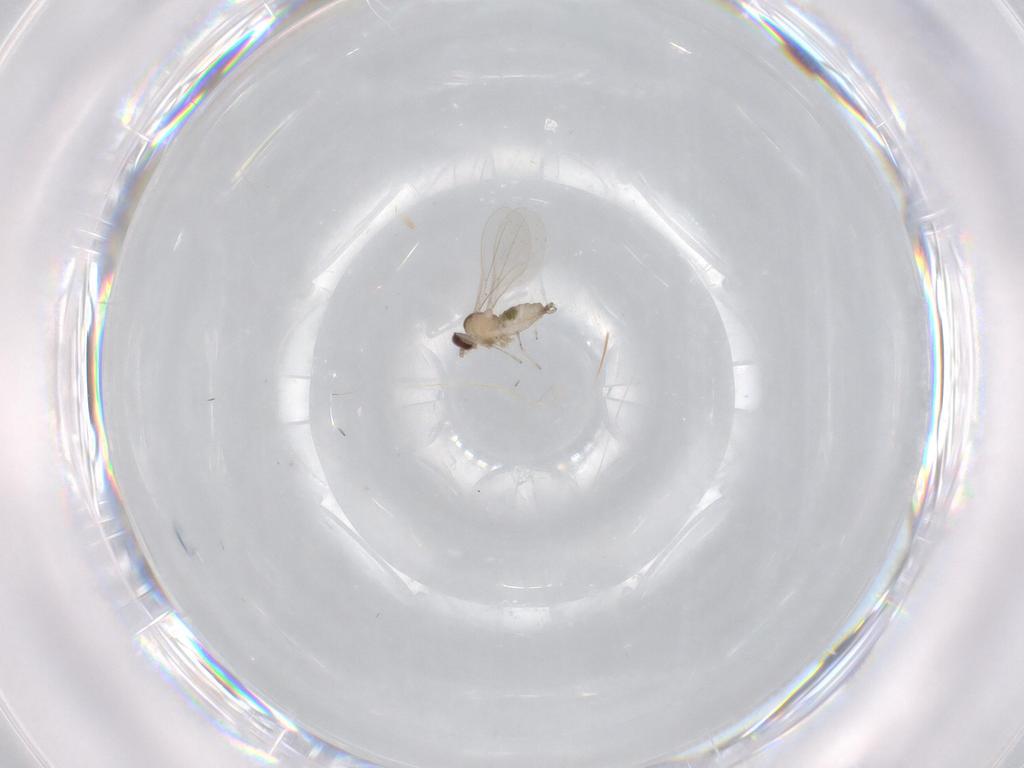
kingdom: Animalia
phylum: Arthropoda
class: Insecta
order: Diptera
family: Cecidomyiidae
